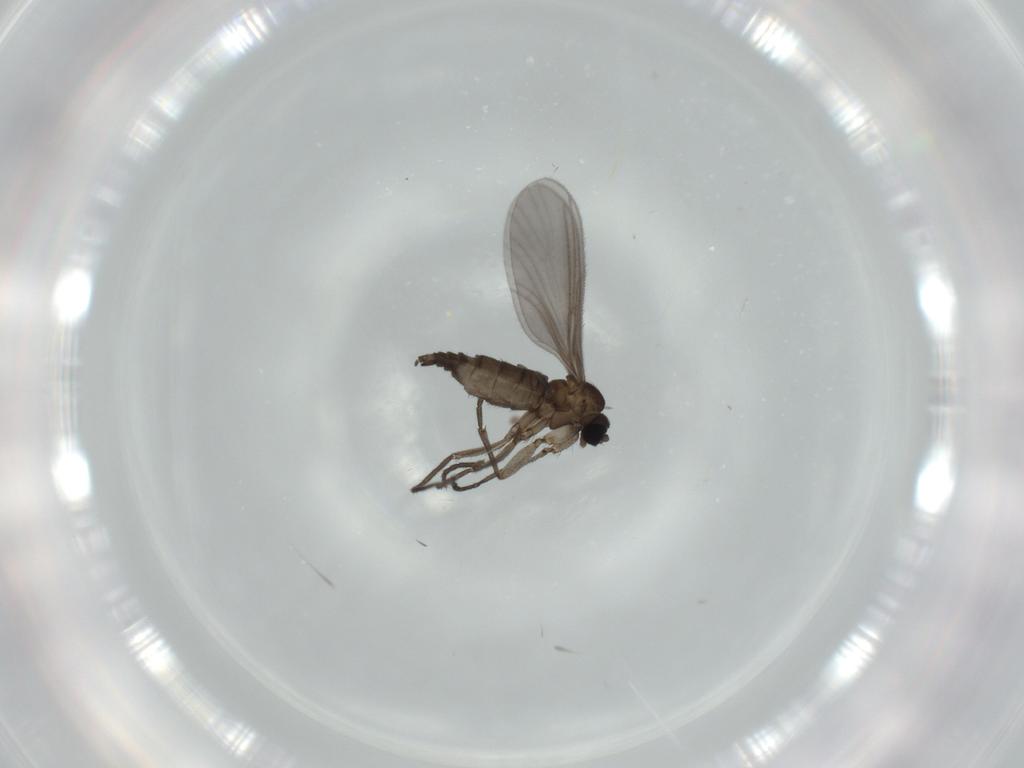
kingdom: Animalia
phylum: Arthropoda
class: Insecta
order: Diptera
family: Sciaridae
